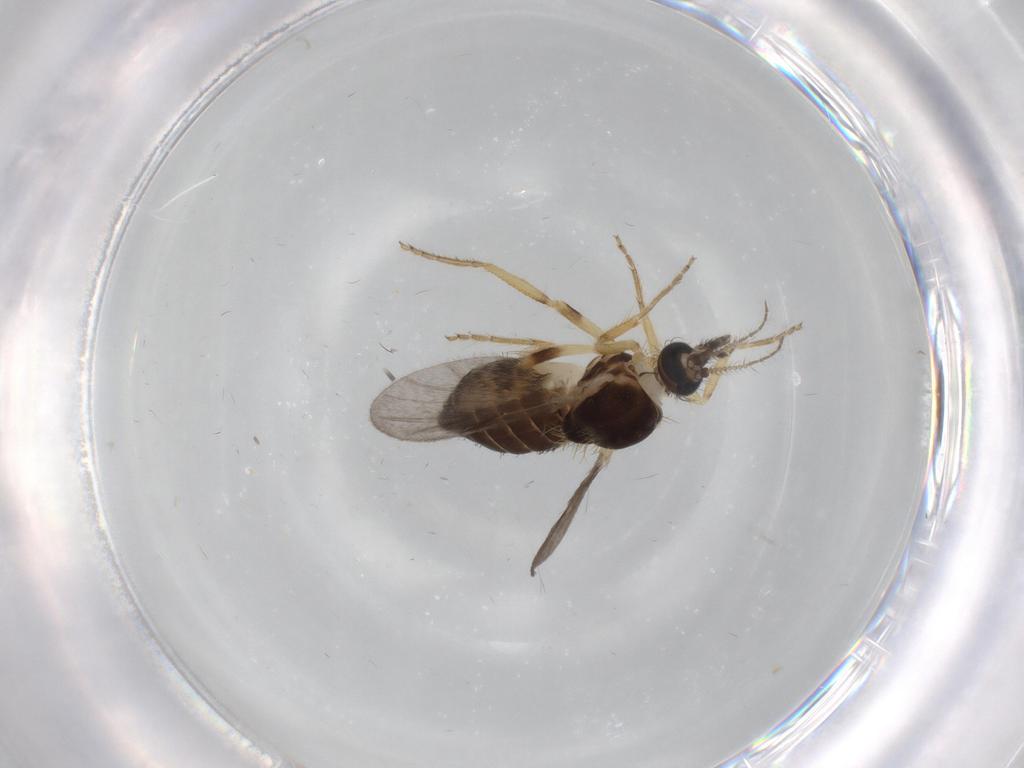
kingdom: Animalia
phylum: Arthropoda
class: Insecta
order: Diptera
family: Ceratopogonidae
